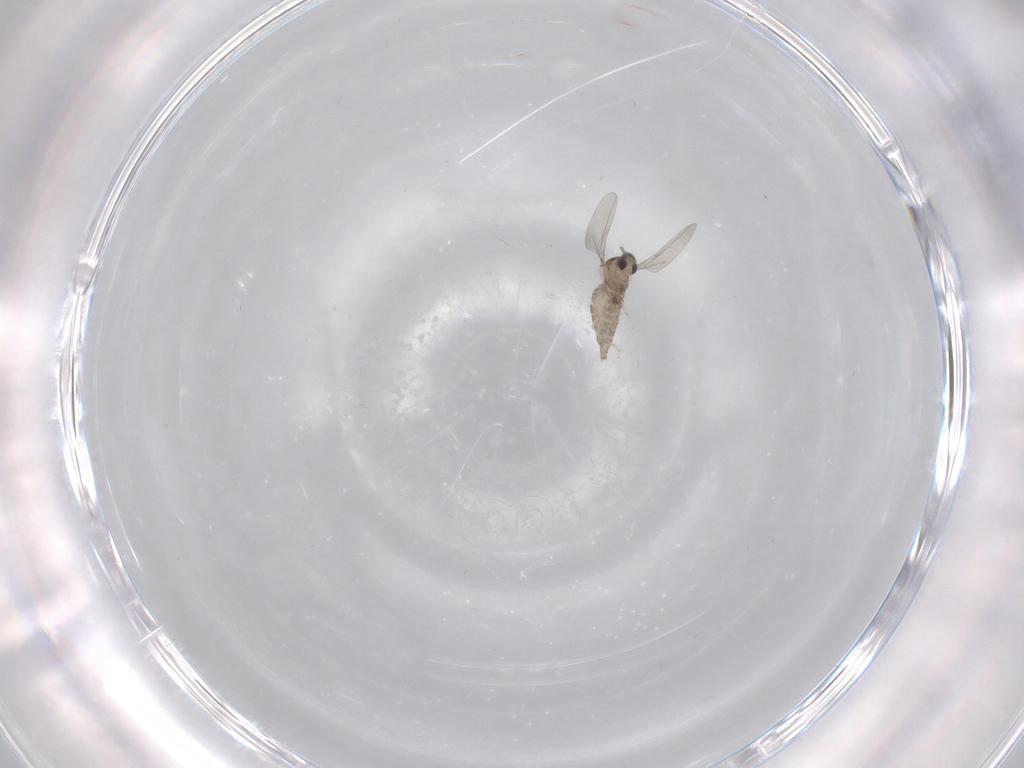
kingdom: Animalia
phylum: Arthropoda
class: Insecta
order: Diptera
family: Cecidomyiidae
